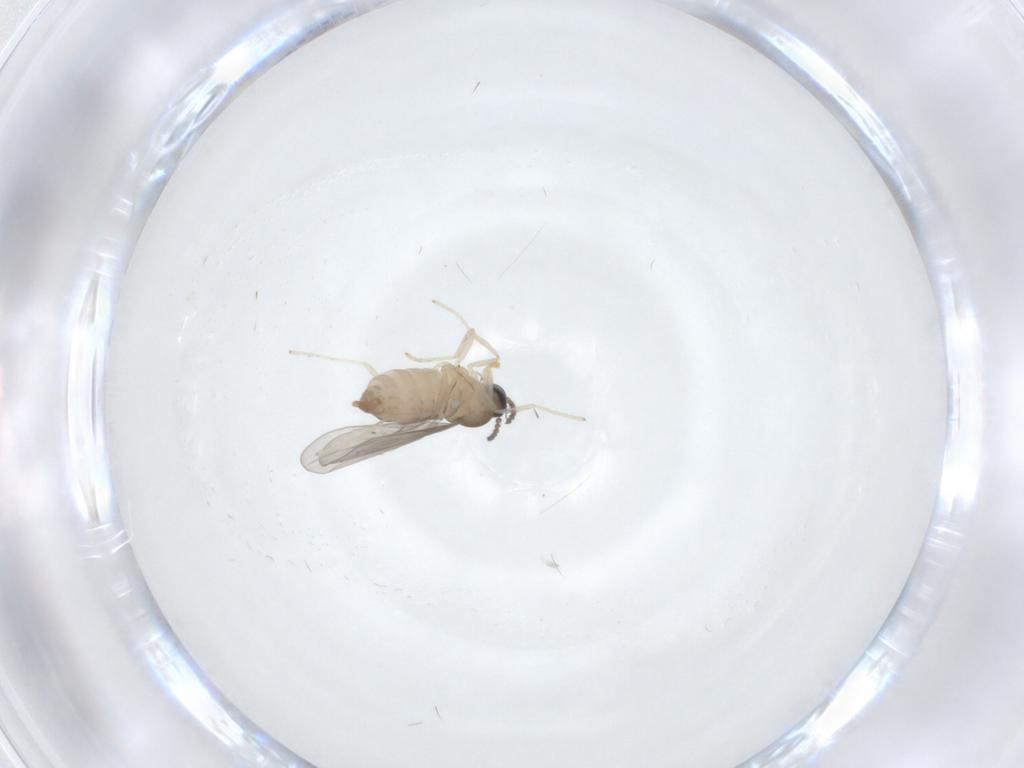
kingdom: Animalia
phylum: Arthropoda
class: Insecta
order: Diptera
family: Cecidomyiidae
